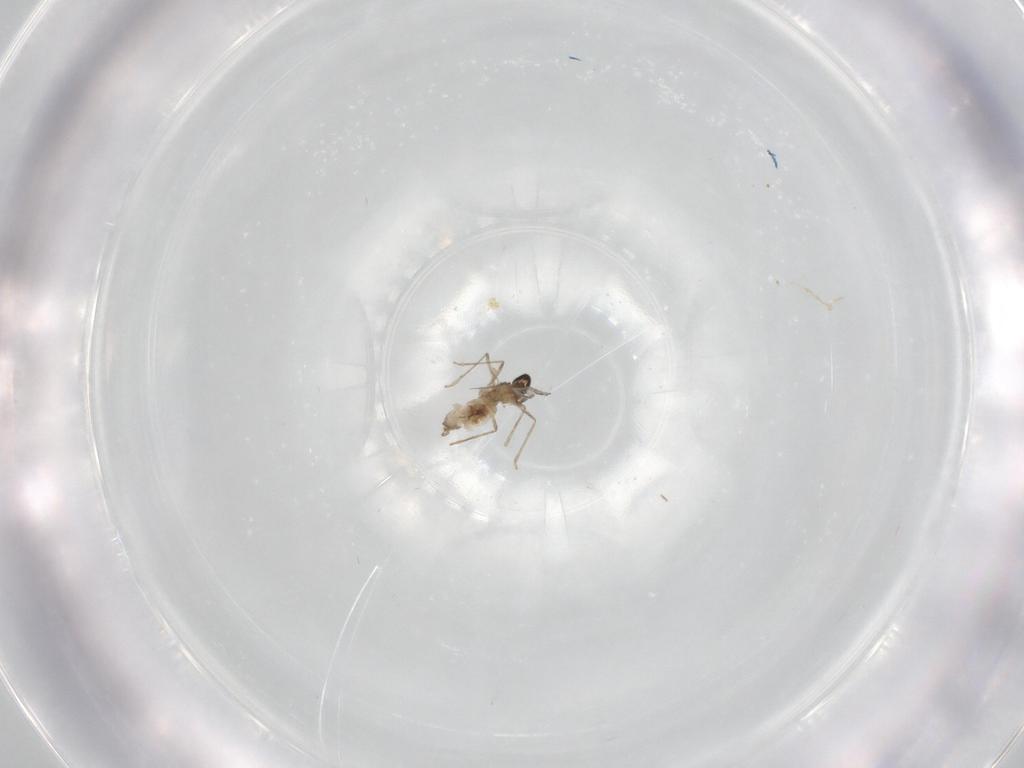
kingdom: Animalia
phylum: Arthropoda
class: Insecta
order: Diptera
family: Cecidomyiidae
